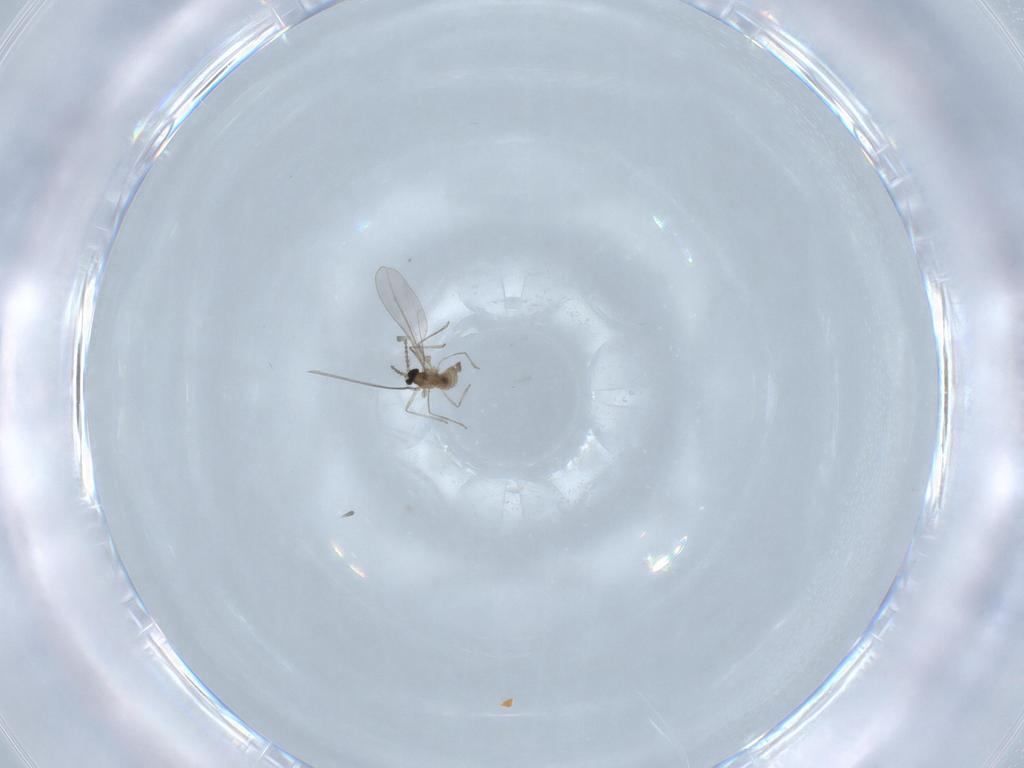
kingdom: Animalia
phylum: Arthropoda
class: Insecta
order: Diptera
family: Cecidomyiidae
